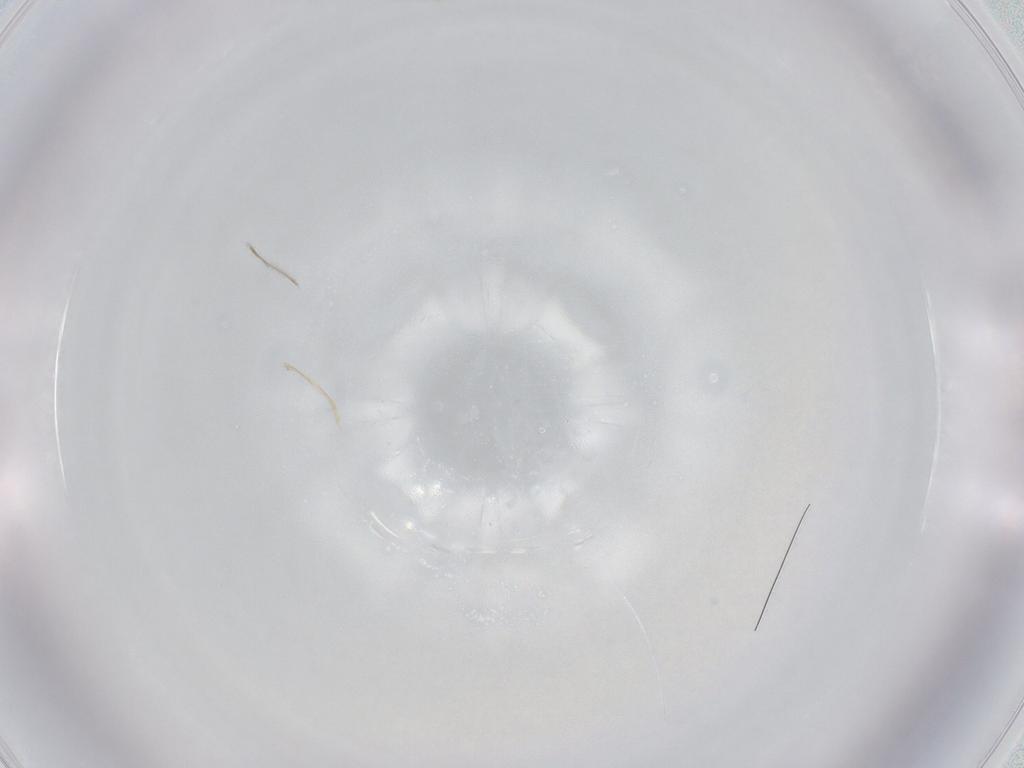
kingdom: Animalia
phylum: Arthropoda
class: Collembola
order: Entomobryomorpha
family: Entomobryidae
